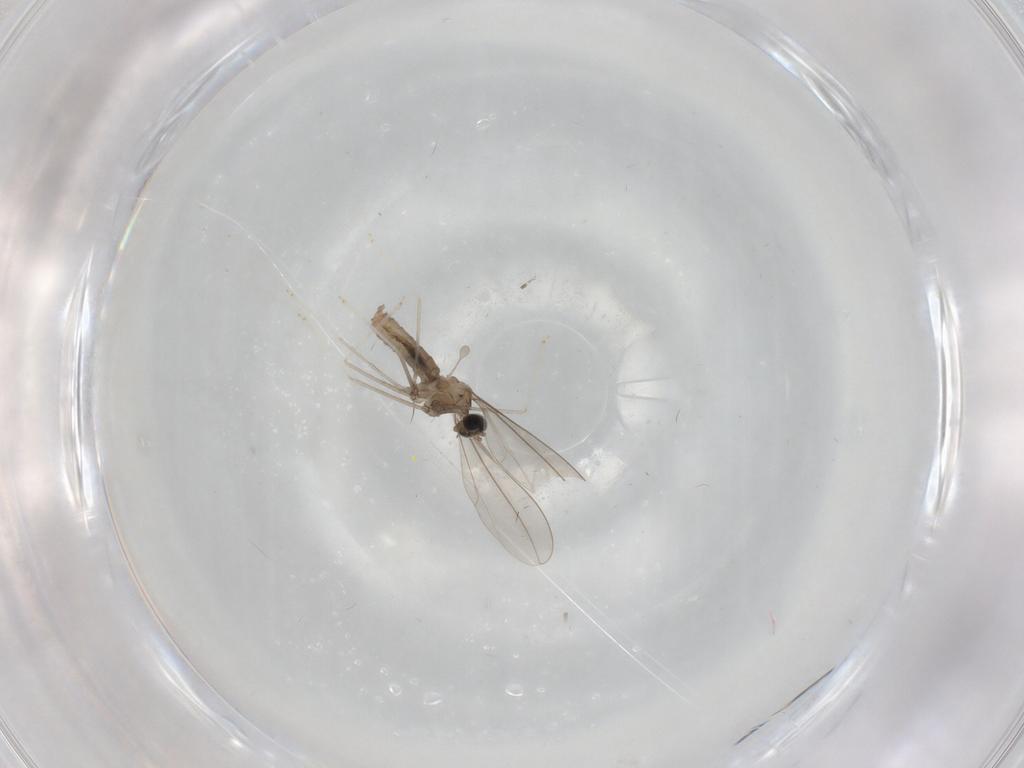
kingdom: Animalia
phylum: Arthropoda
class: Insecta
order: Diptera
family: Cecidomyiidae
